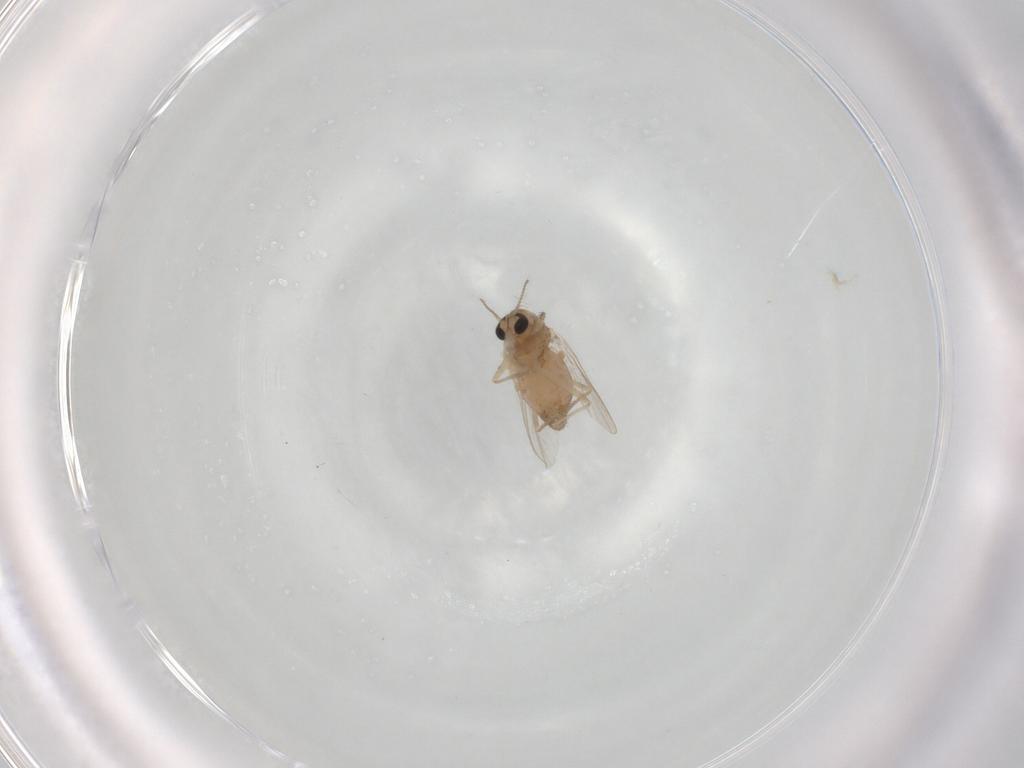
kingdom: Animalia
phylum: Arthropoda
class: Insecta
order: Diptera
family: Chironomidae
